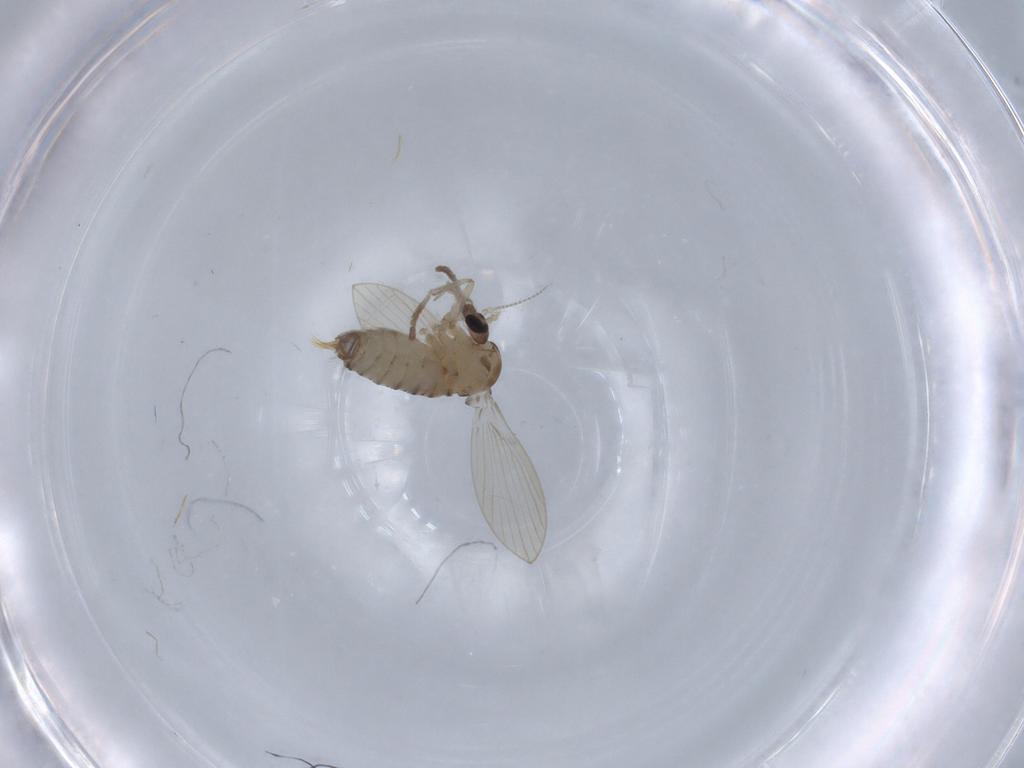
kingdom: Animalia
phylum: Arthropoda
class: Insecta
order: Diptera
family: Psychodidae
